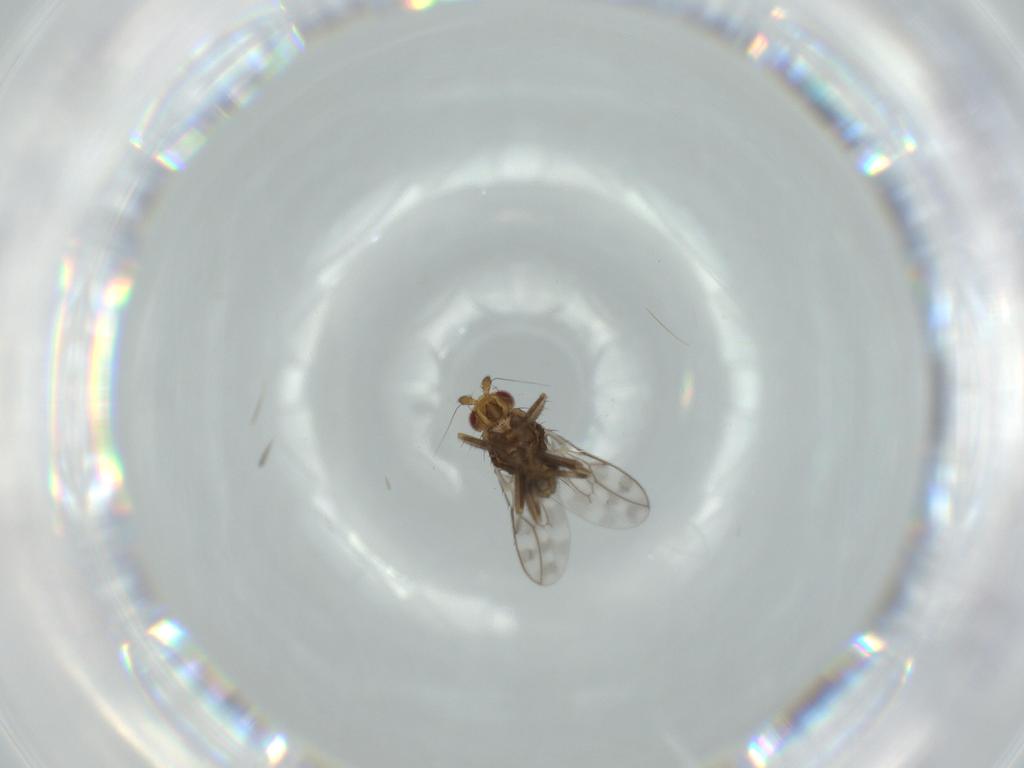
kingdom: Animalia
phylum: Arthropoda
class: Insecta
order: Diptera
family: Sphaeroceridae
